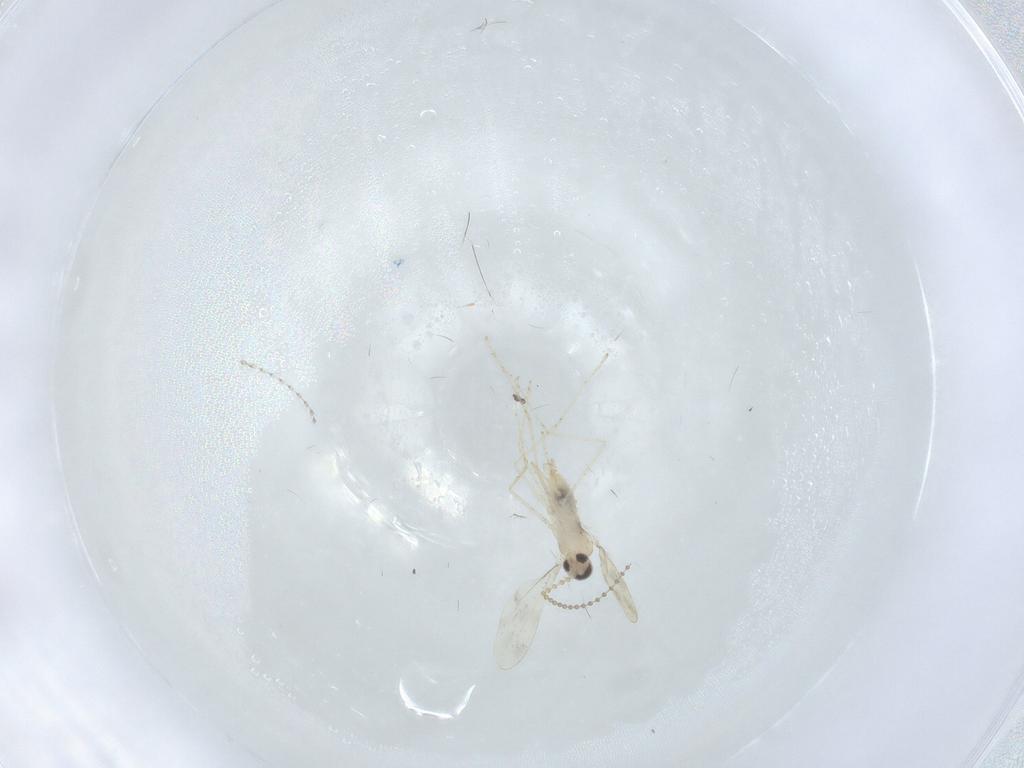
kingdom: Animalia
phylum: Arthropoda
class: Insecta
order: Diptera
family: Cecidomyiidae
